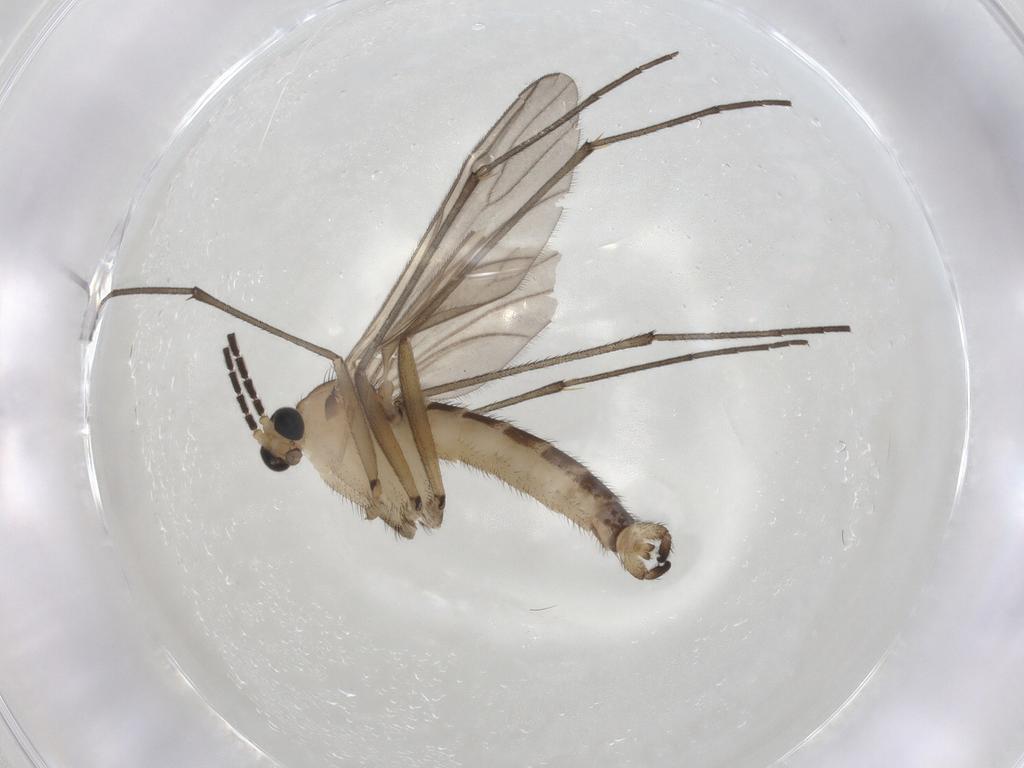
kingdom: Animalia
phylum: Arthropoda
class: Insecta
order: Diptera
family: Sciaridae
